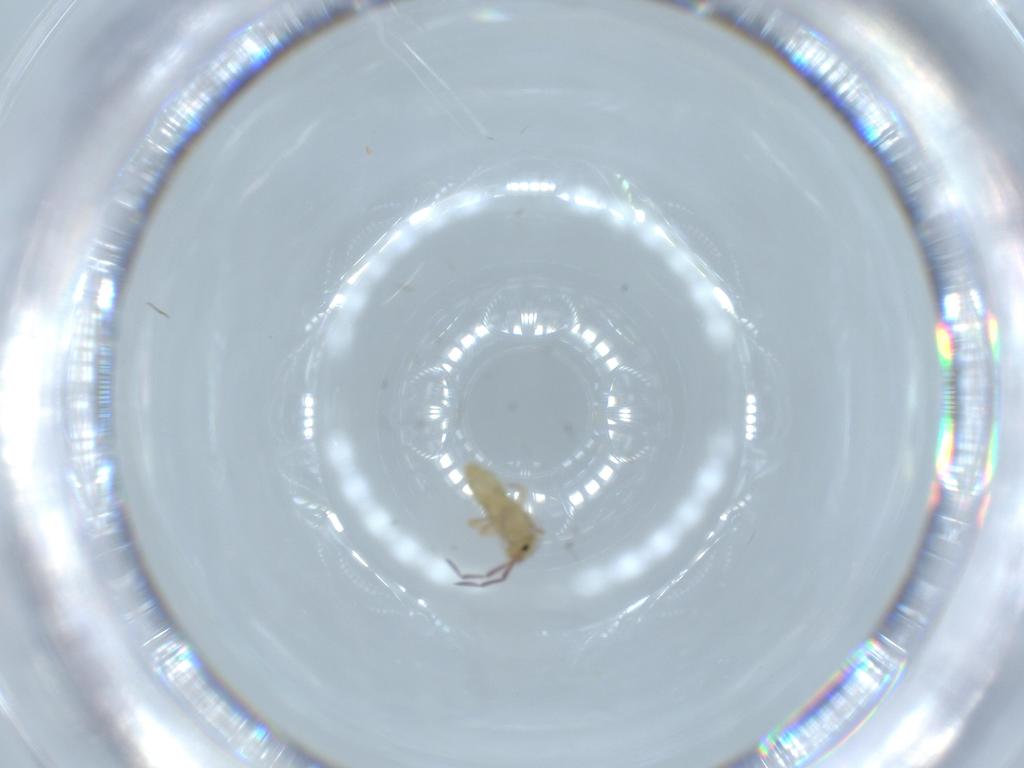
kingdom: Animalia
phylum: Arthropoda
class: Collembola
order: Entomobryomorpha
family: Entomobryidae
